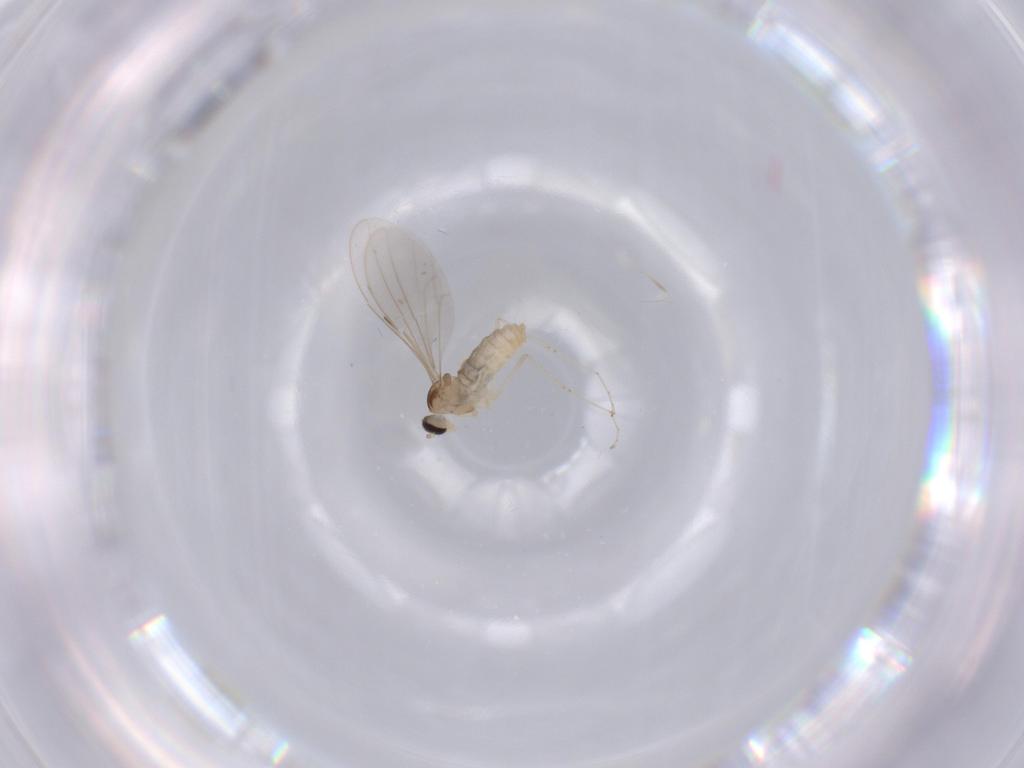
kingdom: Animalia
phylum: Arthropoda
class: Insecta
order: Diptera
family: Cecidomyiidae
